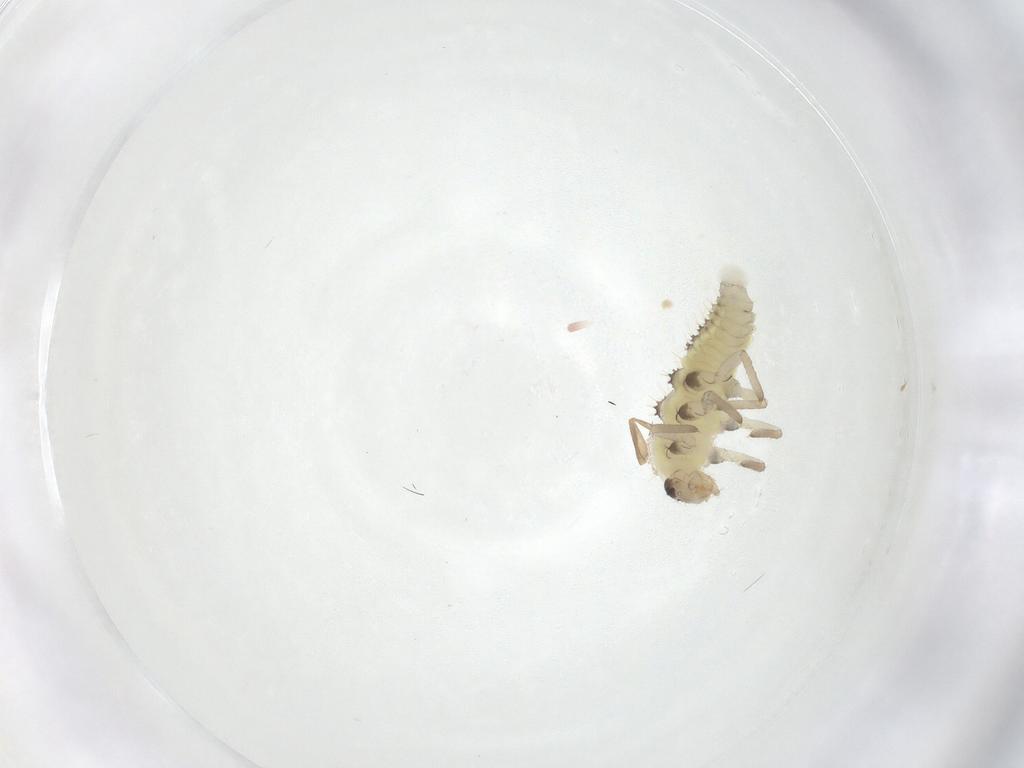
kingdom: Animalia
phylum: Arthropoda
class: Insecta
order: Coleoptera
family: Coccinellidae
